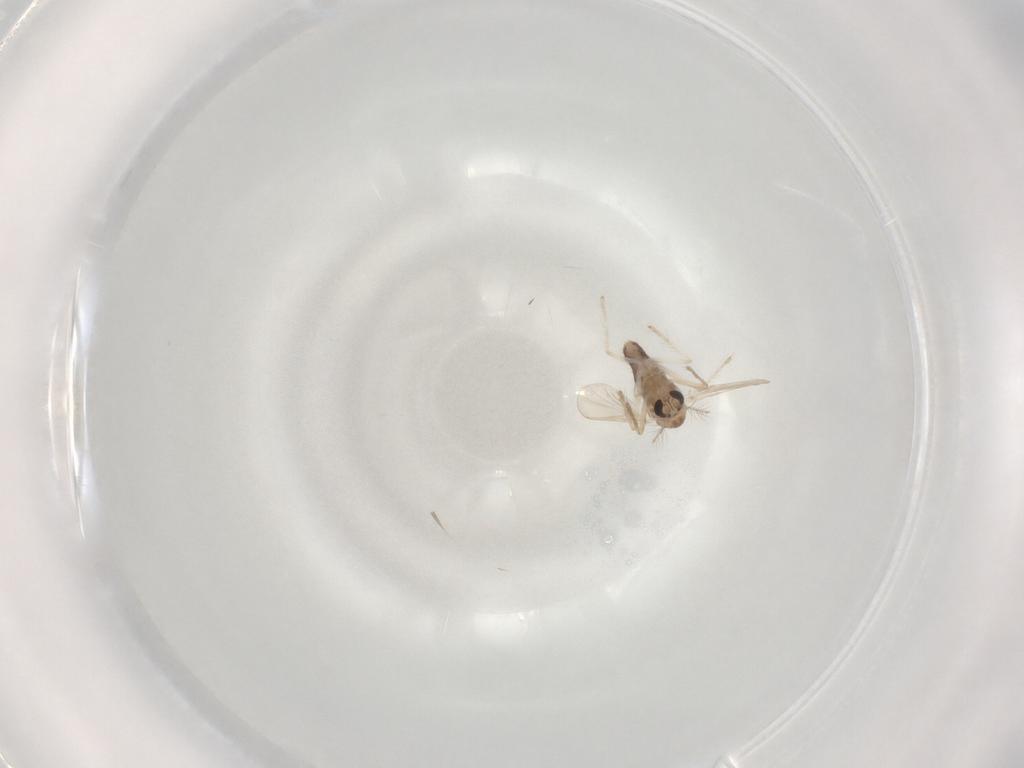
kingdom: Animalia
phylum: Arthropoda
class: Insecta
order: Diptera
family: Chironomidae
